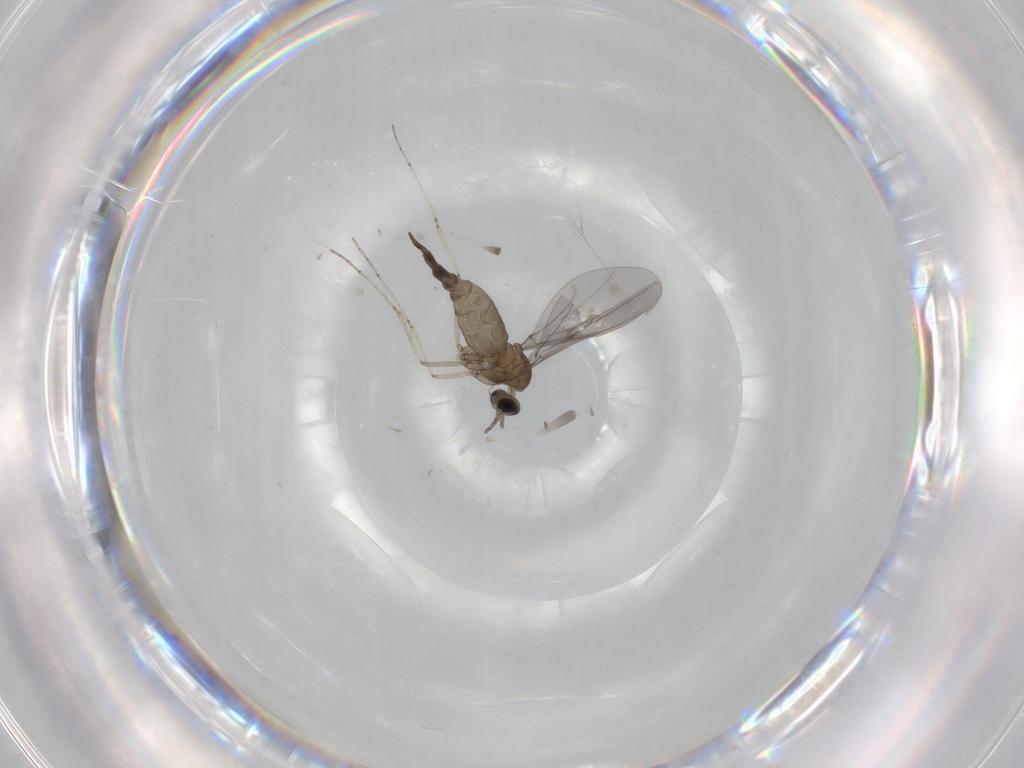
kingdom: Animalia
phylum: Arthropoda
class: Insecta
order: Diptera
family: Cecidomyiidae
